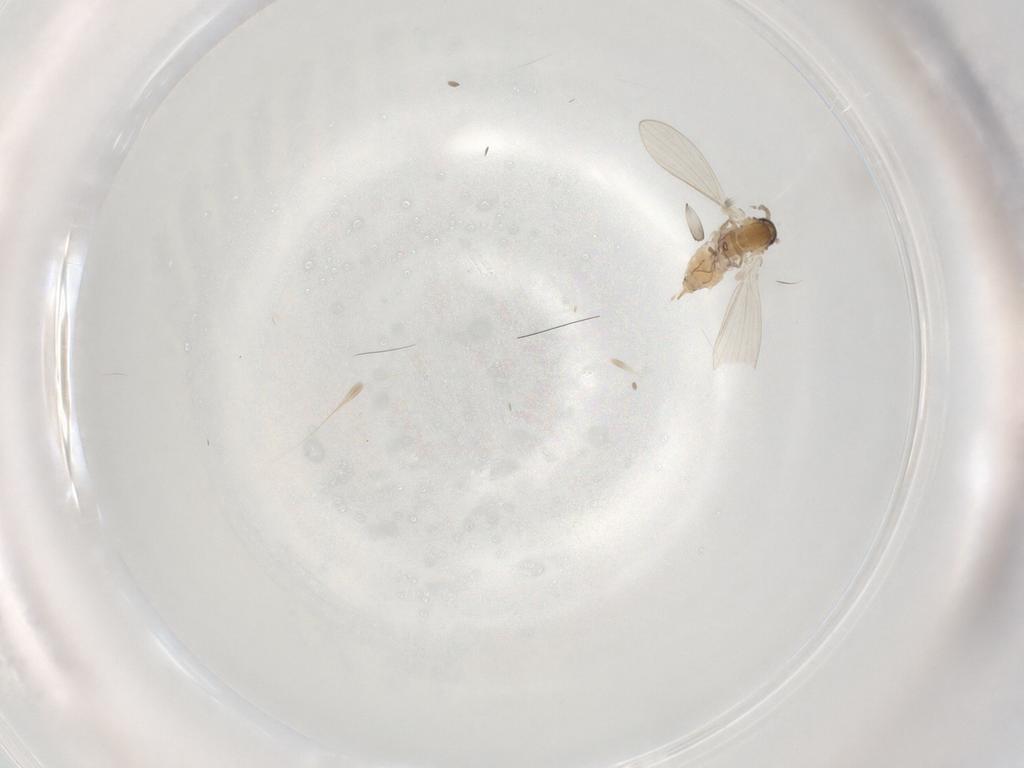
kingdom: Animalia
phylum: Arthropoda
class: Insecta
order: Diptera
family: Psychodidae
